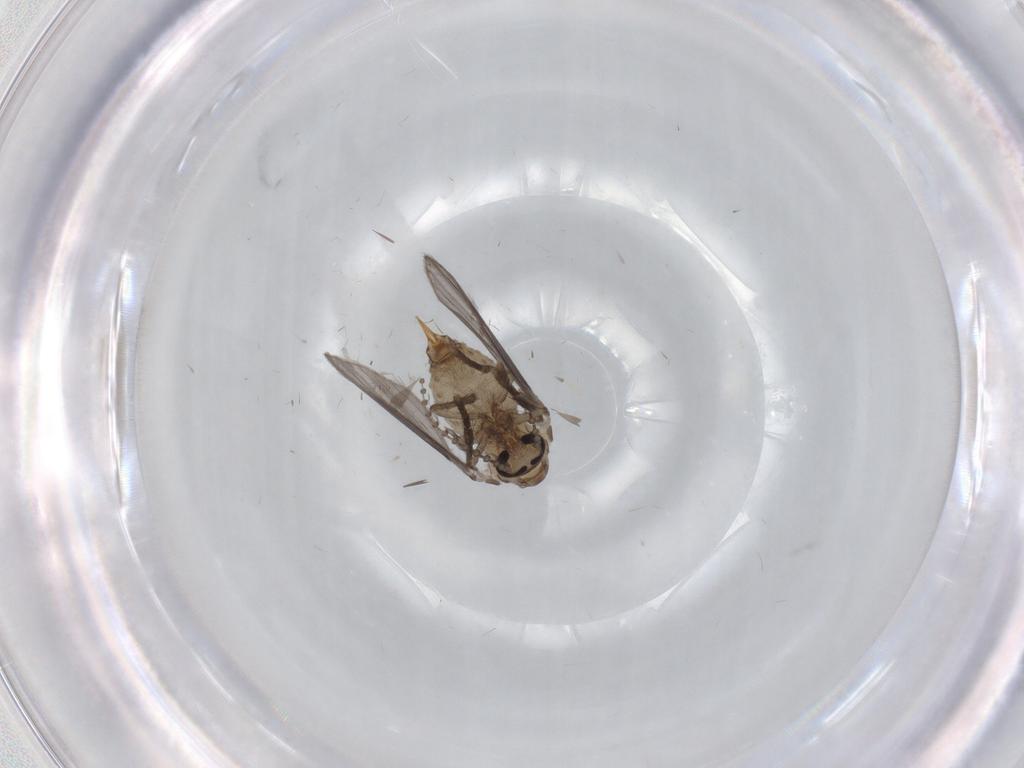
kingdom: Animalia
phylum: Arthropoda
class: Insecta
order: Diptera
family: Psychodidae
